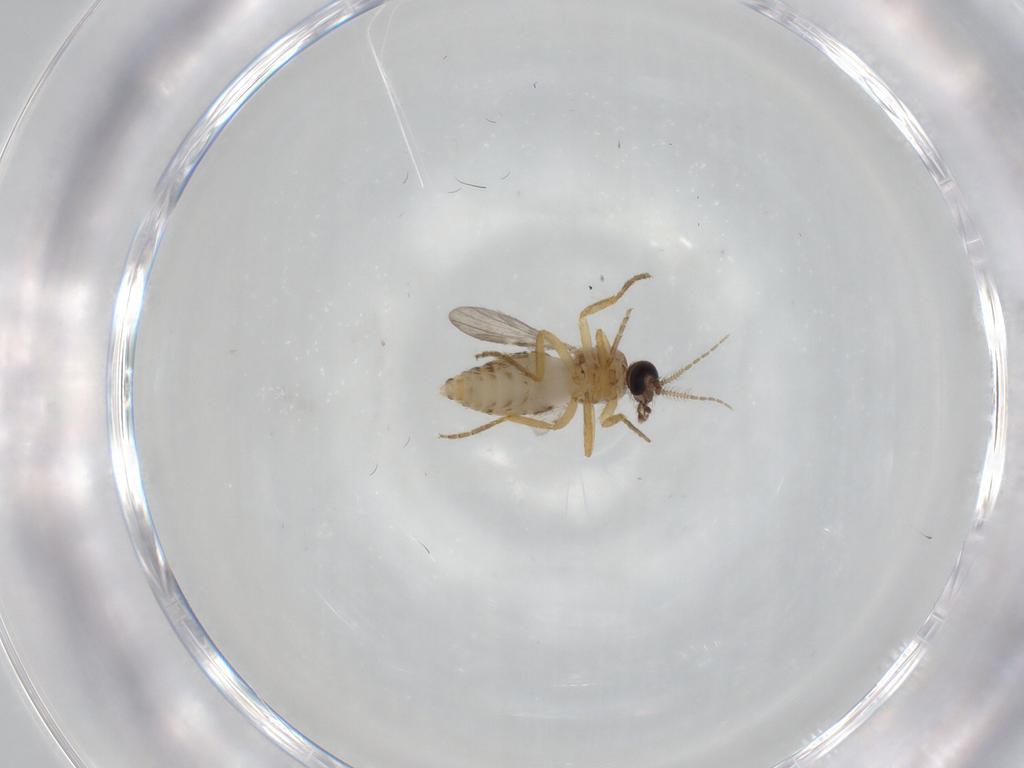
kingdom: Animalia
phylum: Arthropoda
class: Insecta
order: Diptera
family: Ceratopogonidae
